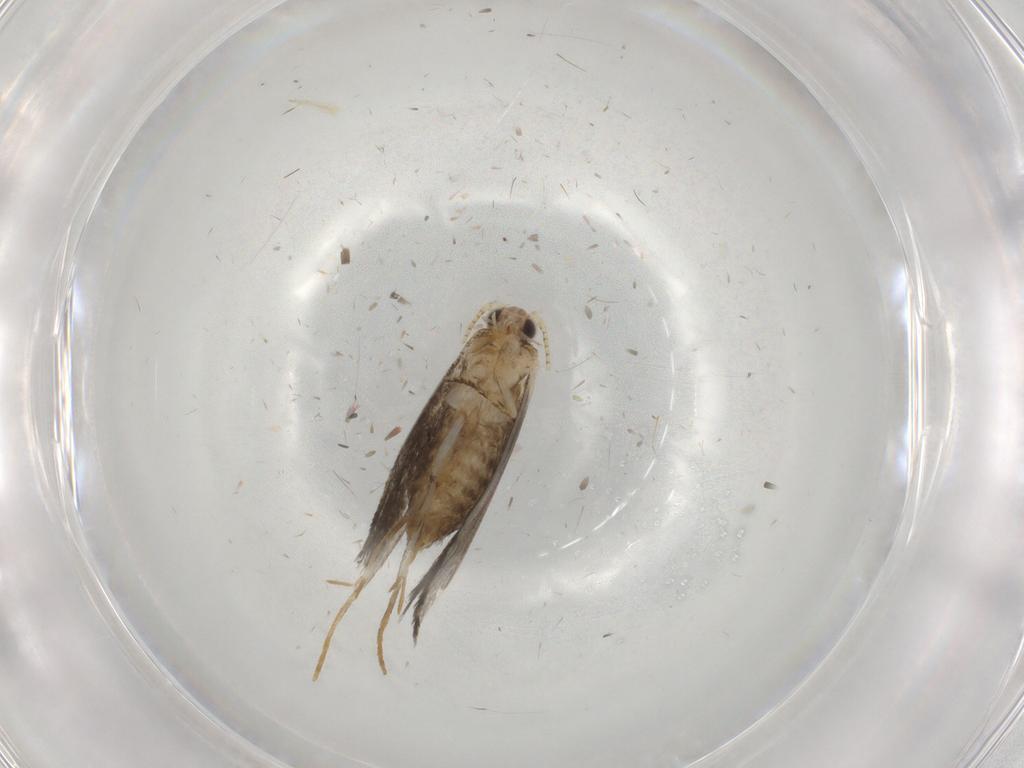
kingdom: Animalia
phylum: Arthropoda
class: Insecta
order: Lepidoptera
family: Tineidae
